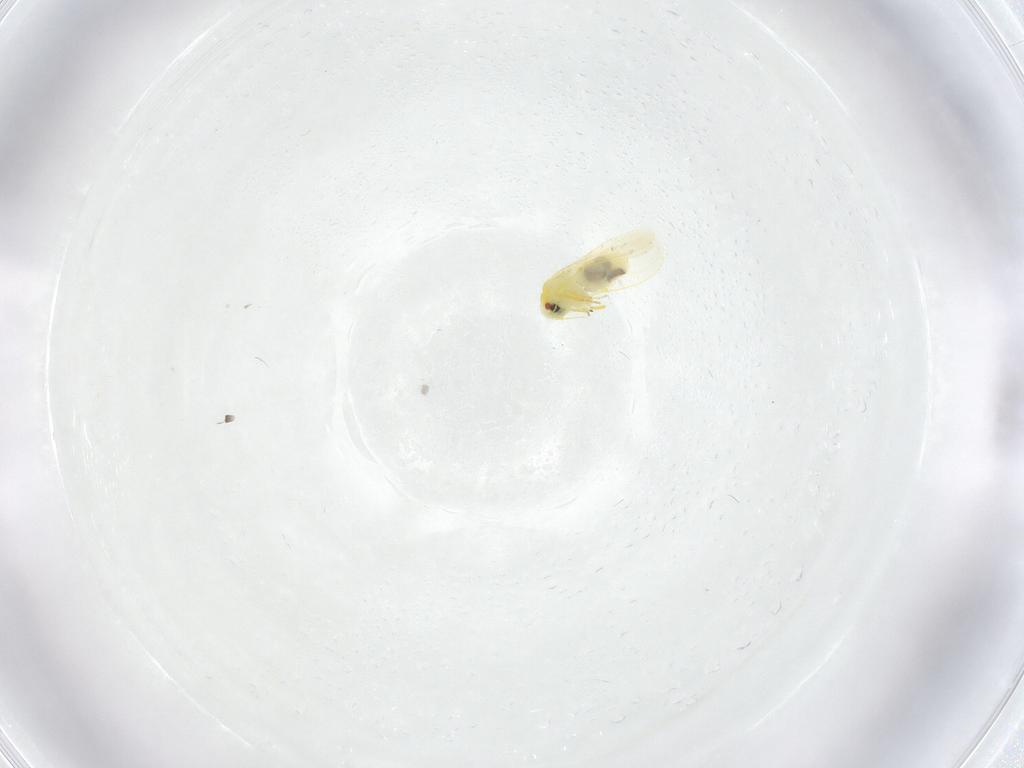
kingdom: Animalia
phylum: Arthropoda
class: Insecta
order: Hemiptera
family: Aleyrodidae
